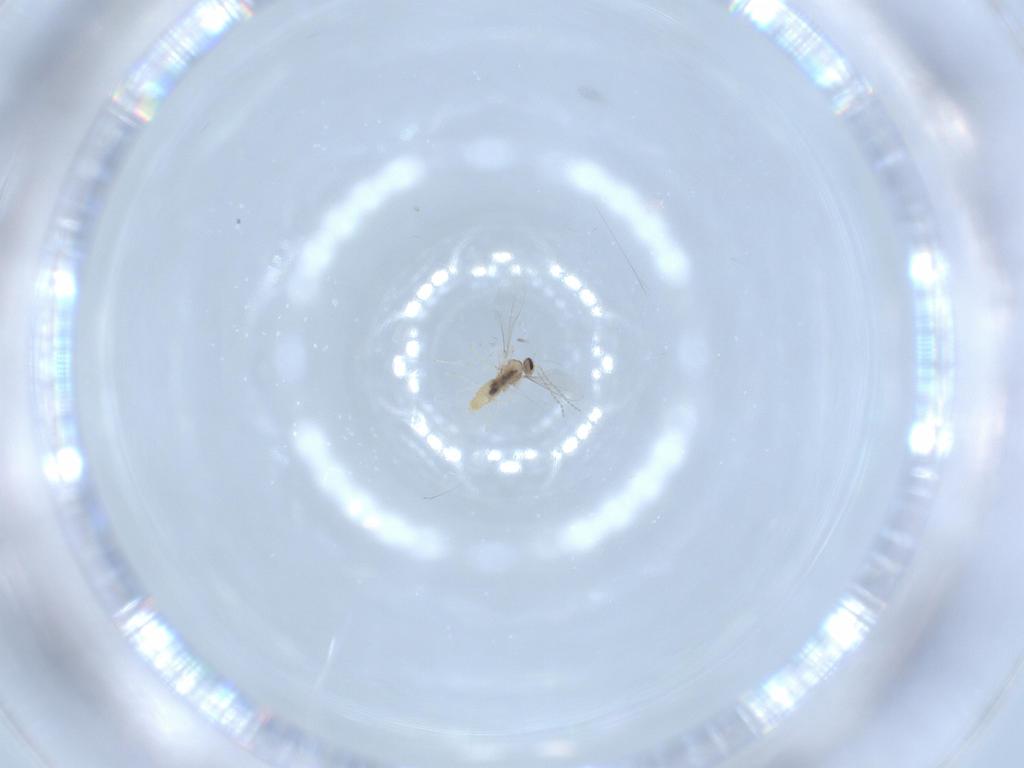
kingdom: Animalia
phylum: Arthropoda
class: Insecta
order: Diptera
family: Cecidomyiidae
